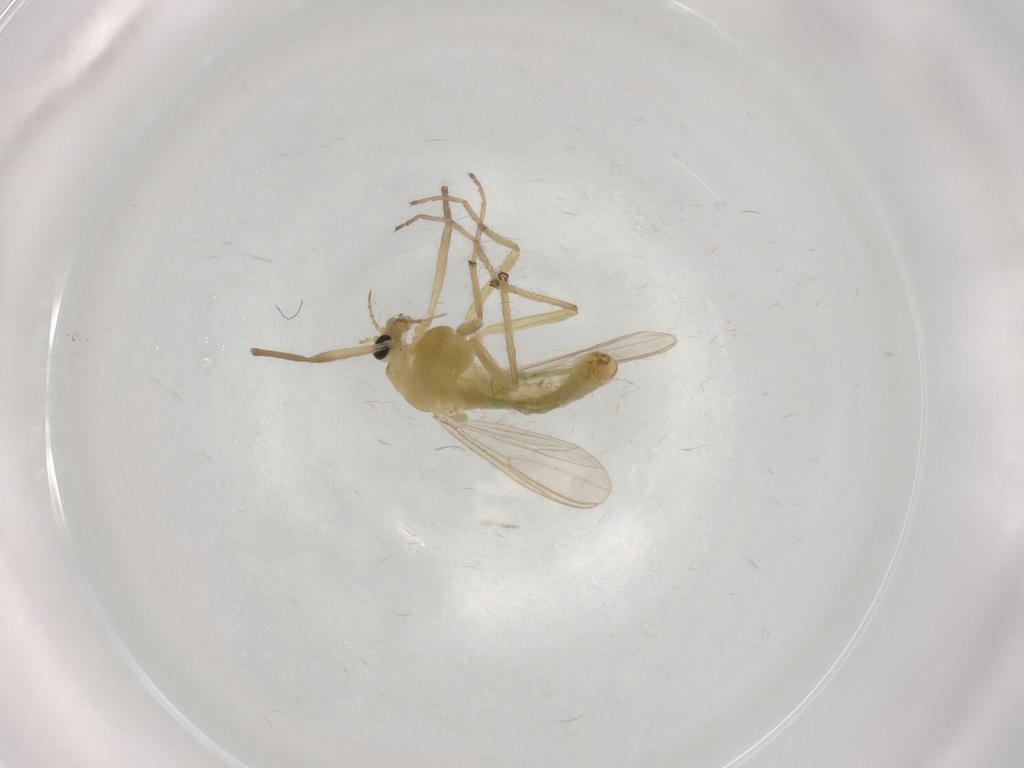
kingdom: Animalia
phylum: Arthropoda
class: Insecta
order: Diptera
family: Chironomidae
